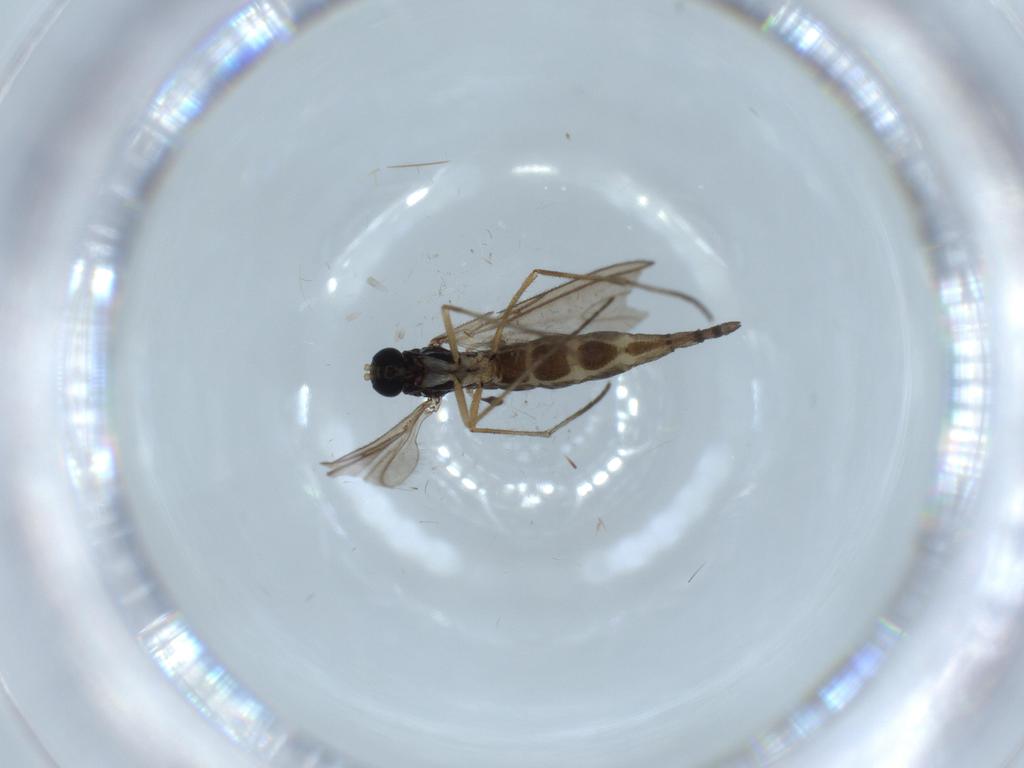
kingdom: Animalia
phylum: Arthropoda
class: Insecta
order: Diptera
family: Sciaridae
